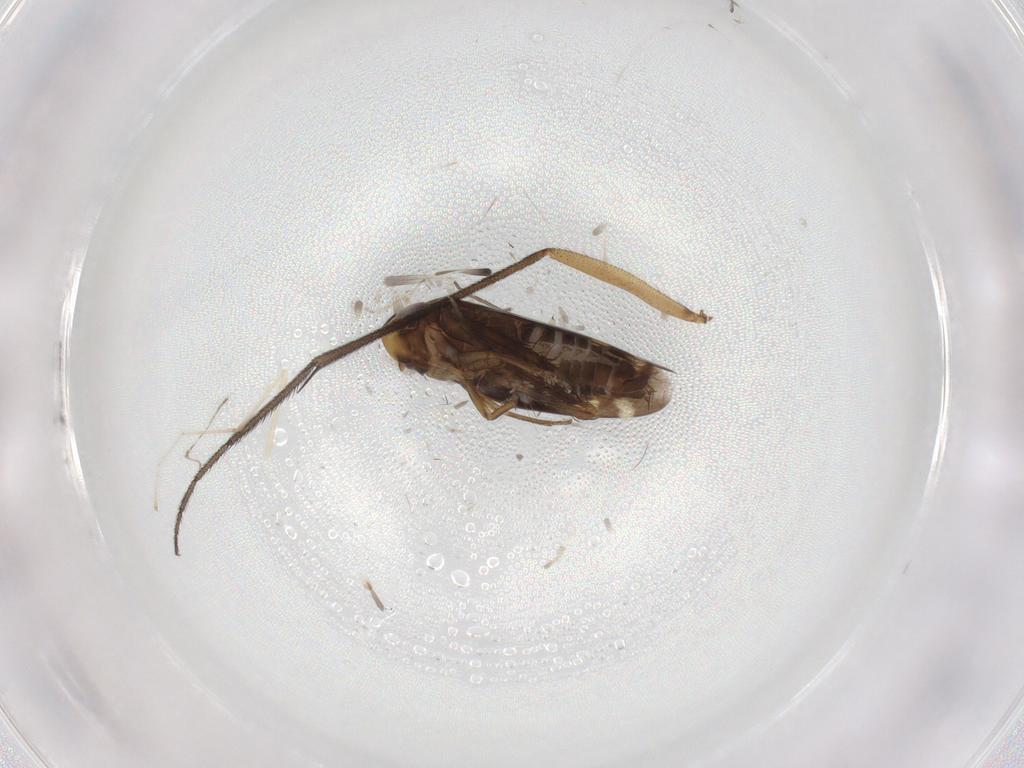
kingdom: Animalia
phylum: Arthropoda
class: Insecta
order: Hemiptera
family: Cicadellidae
